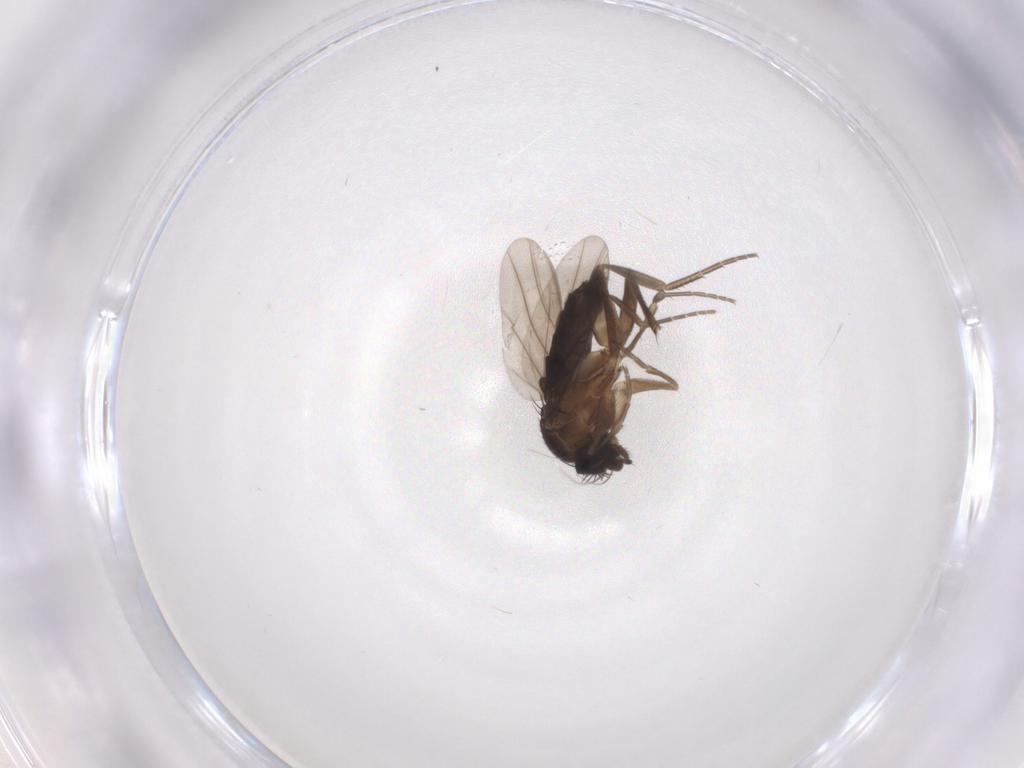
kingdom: Animalia
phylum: Arthropoda
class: Insecta
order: Diptera
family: Phoridae
